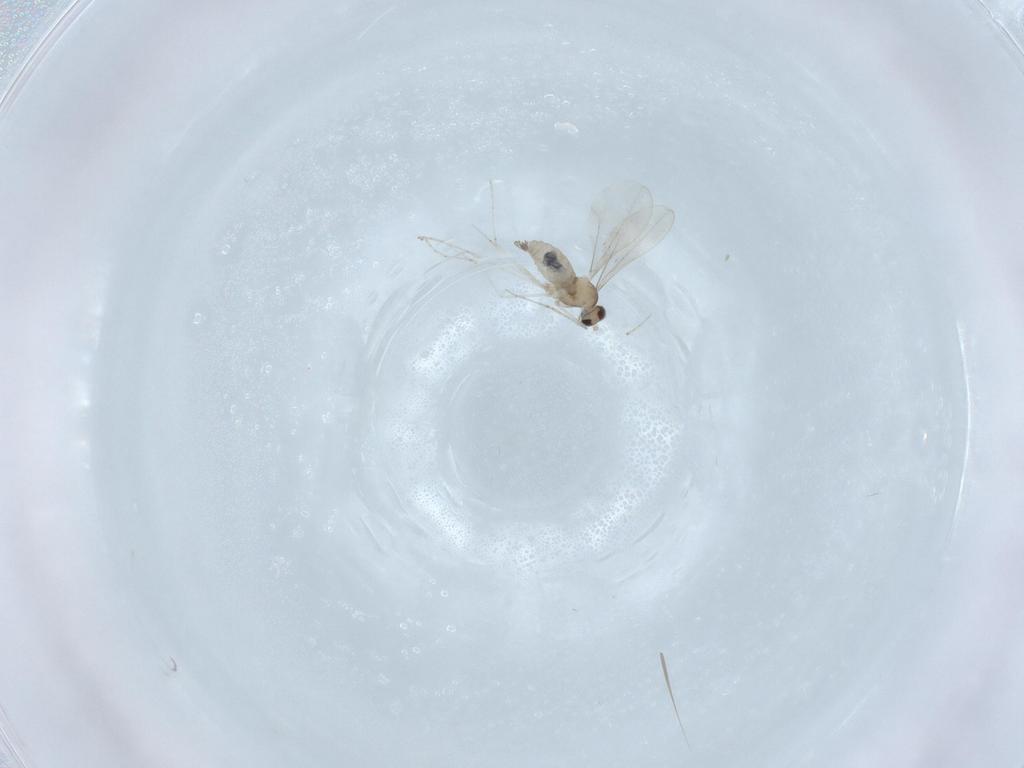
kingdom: Animalia
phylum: Arthropoda
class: Insecta
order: Diptera
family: Cecidomyiidae
